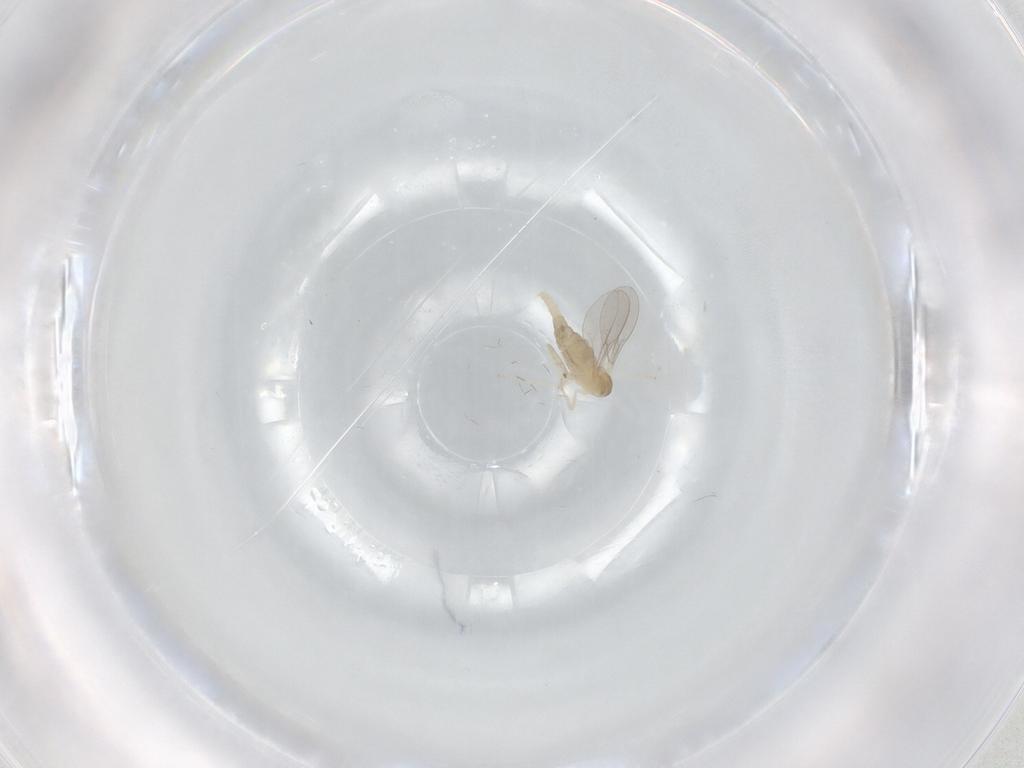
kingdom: Animalia
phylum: Arthropoda
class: Insecta
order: Diptera
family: Cecidomyiidae
